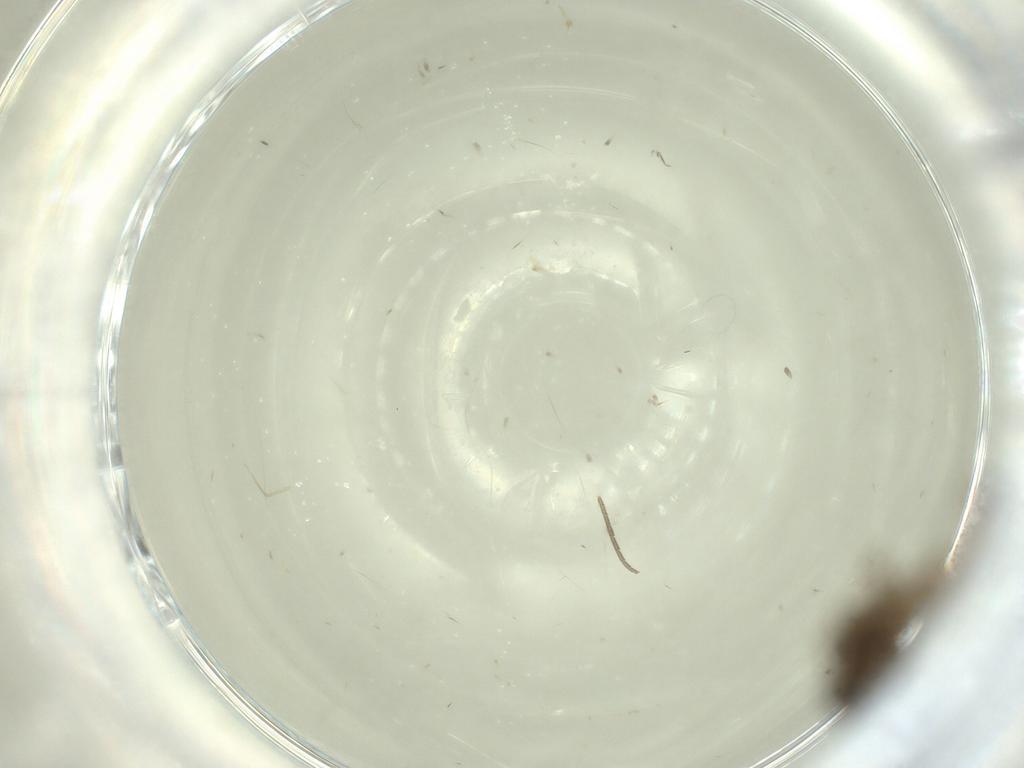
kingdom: Animalia
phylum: Arthropoda
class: Insecta
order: Diptera
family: Ceratopogonidae
